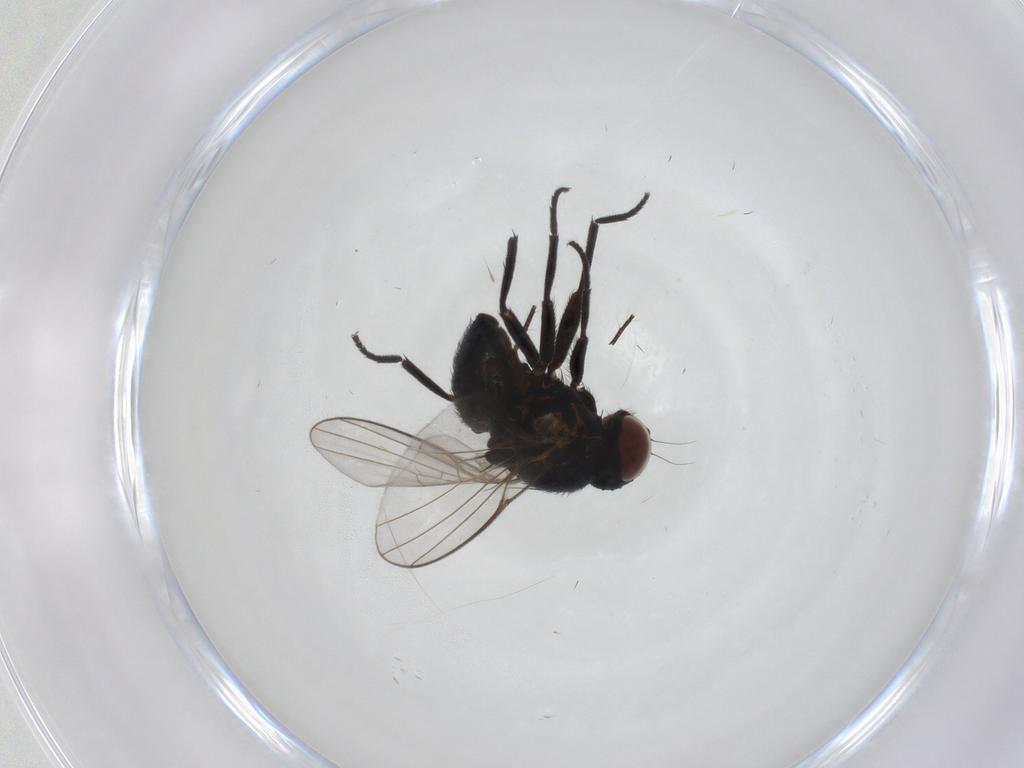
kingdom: Animalia
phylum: Arthropoda
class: Insecta
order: Diptera
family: Agromyzidae
